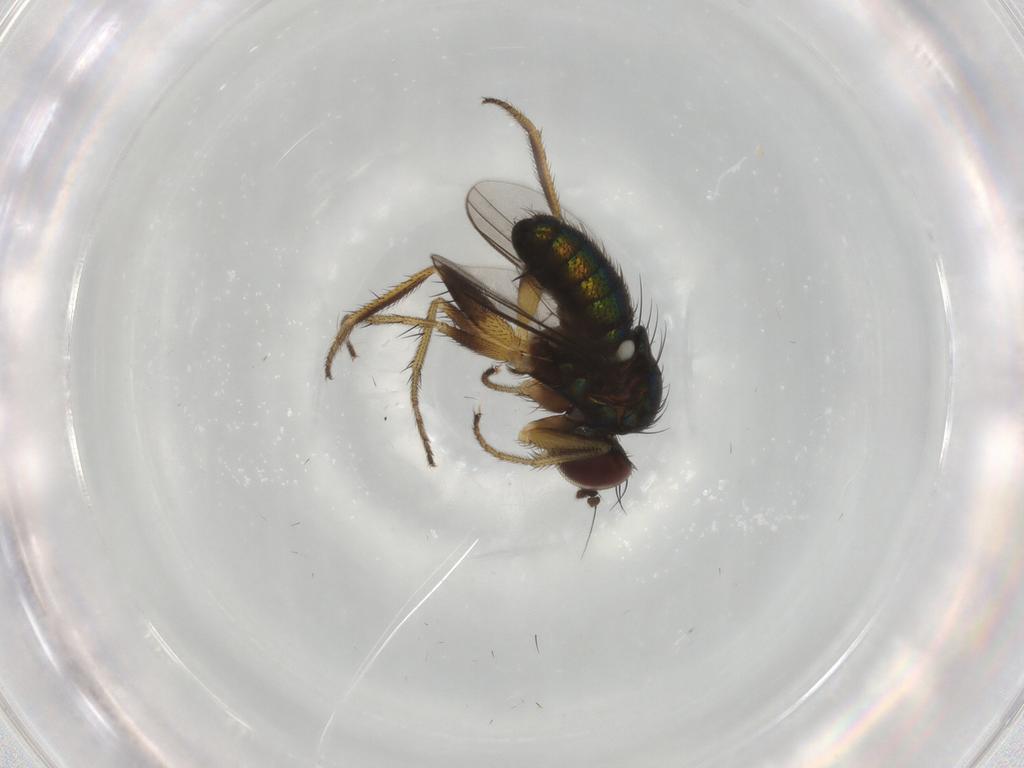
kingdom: Animalia
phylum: Arthropoda
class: Insecta
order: Diptera
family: Dolichopodidae
